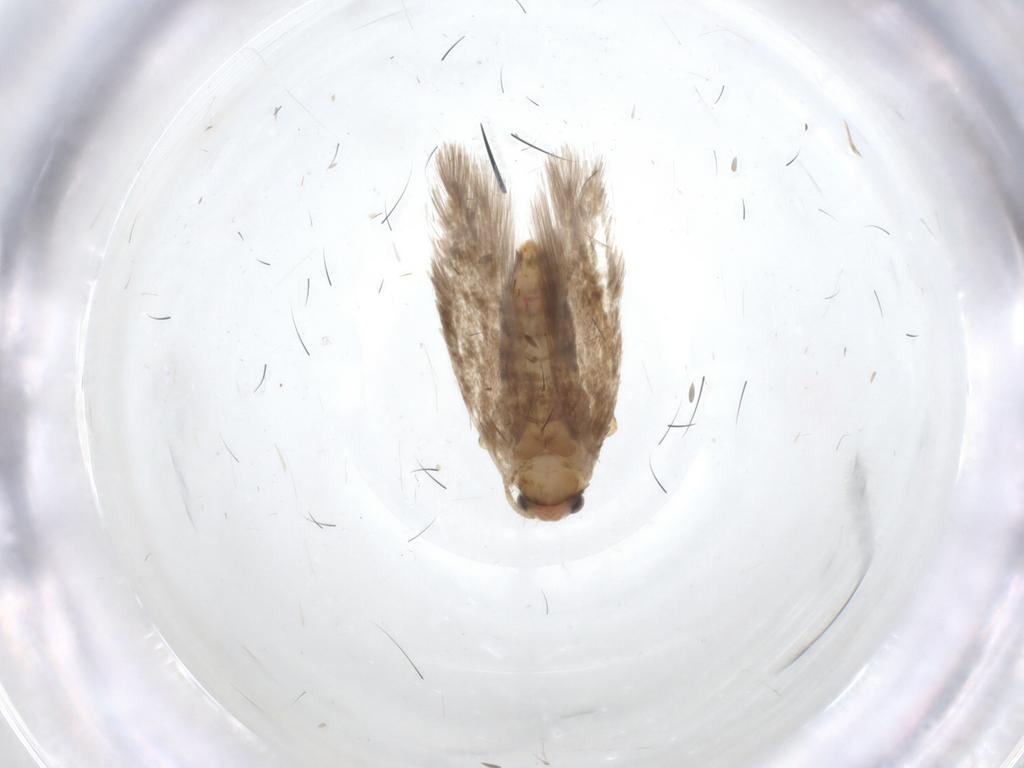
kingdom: Animalia
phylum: Arthropoda
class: Insecta
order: Lepidoptera
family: Nepticulidae
